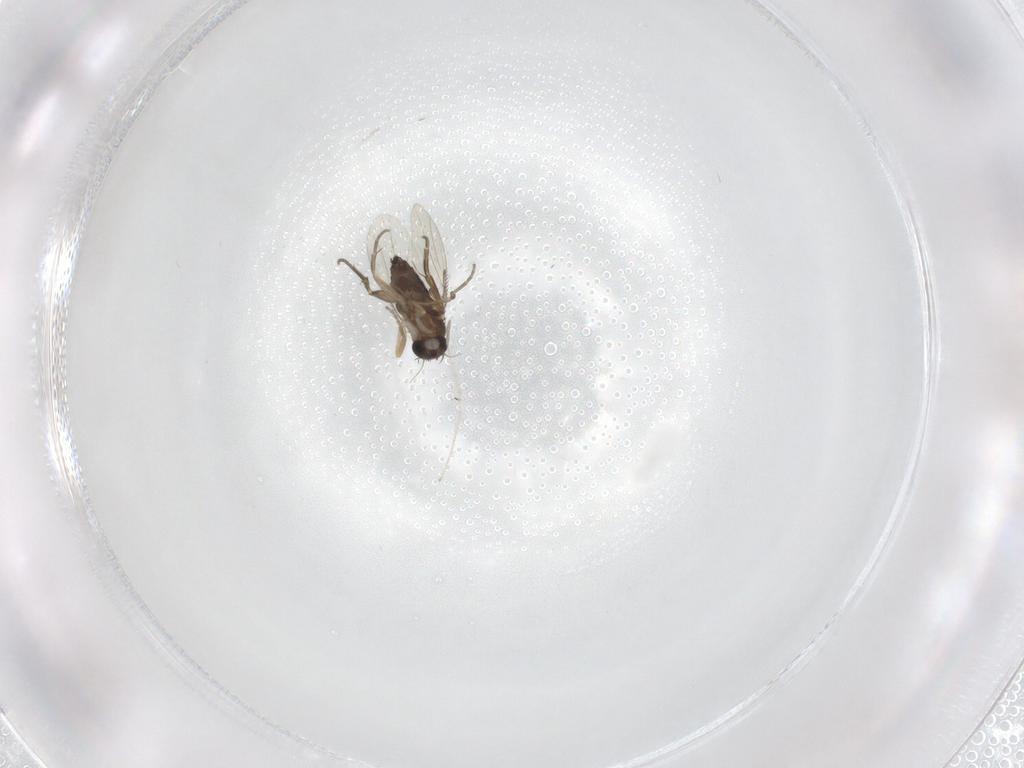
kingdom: Animalia
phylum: Arthropoda
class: Insecta
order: Diptera
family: Phoridae
